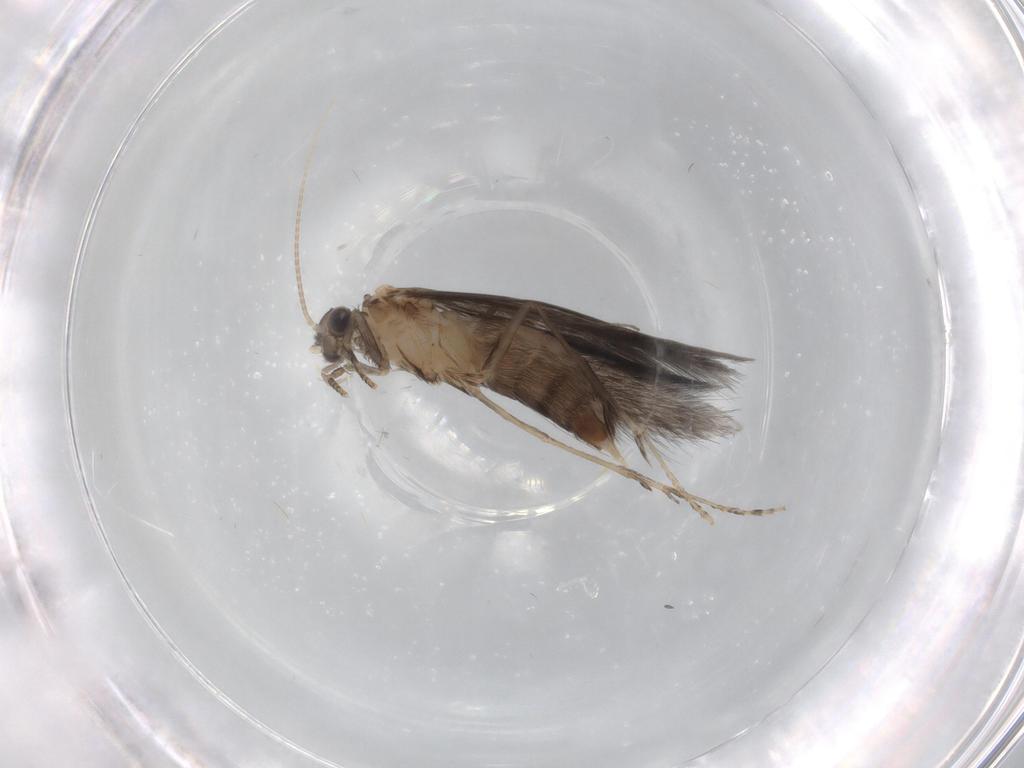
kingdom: Animalia
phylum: Arthropoda
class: Insecta
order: Trichoptera
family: Hydroptilidae
